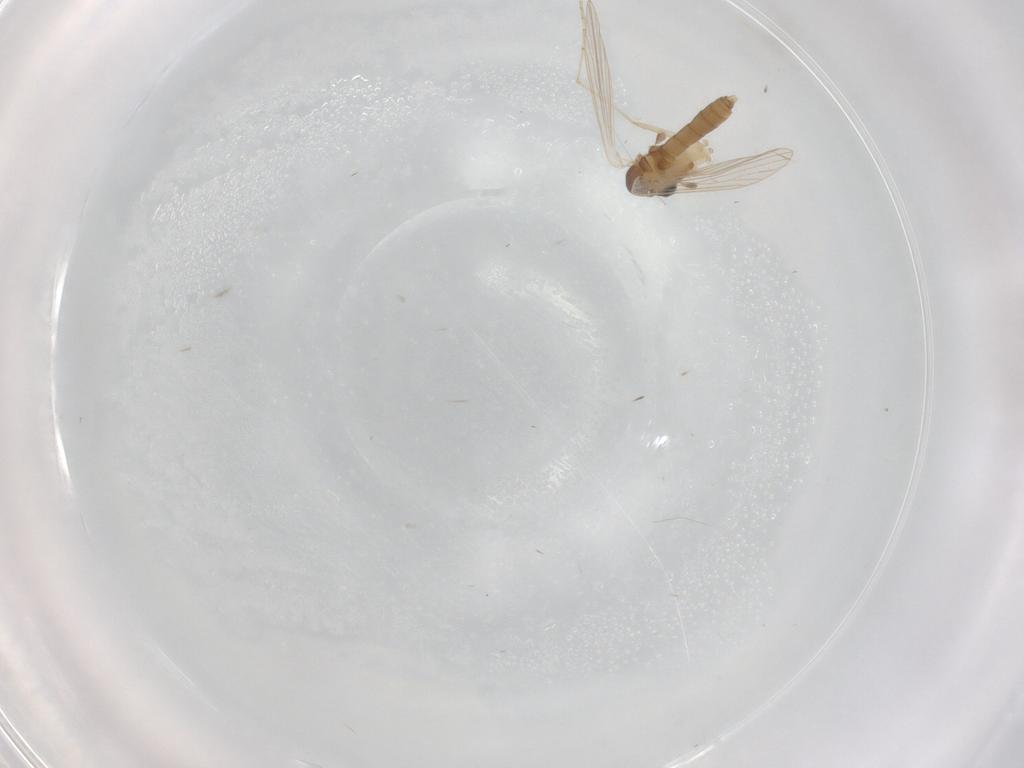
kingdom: Animalia
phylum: Arthropoda
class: Insecta
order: Diptera
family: Psychodidae
